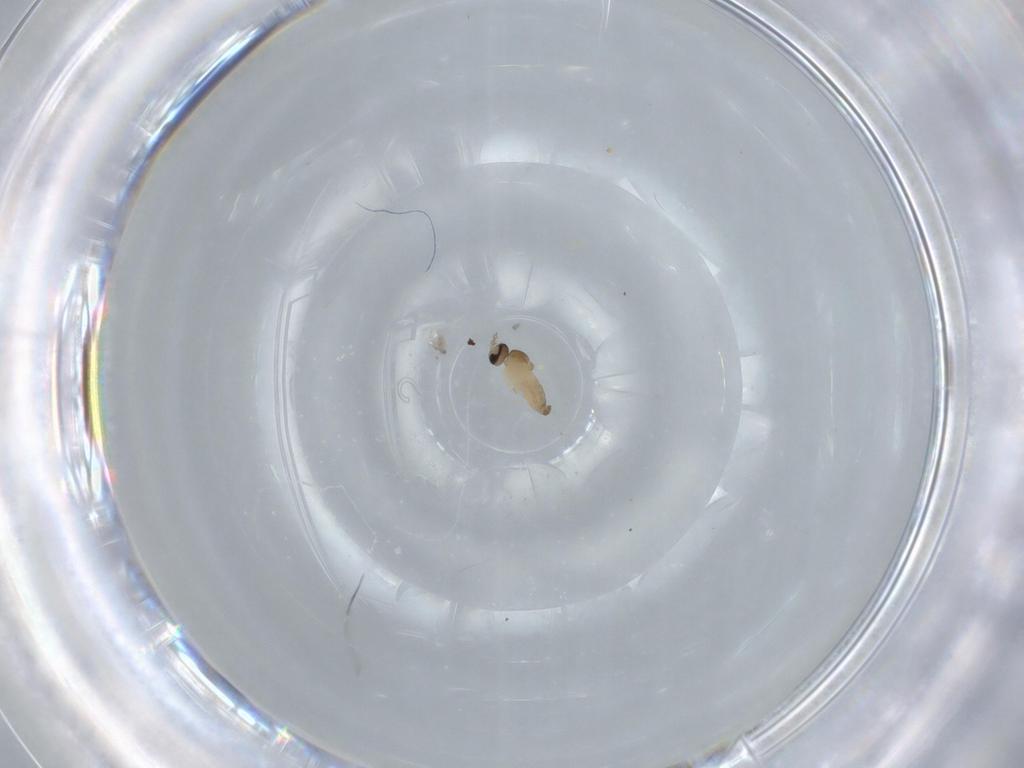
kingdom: Animalia
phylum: Arthropoda
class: Insecta
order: Diptera
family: Cecidomyiidae
